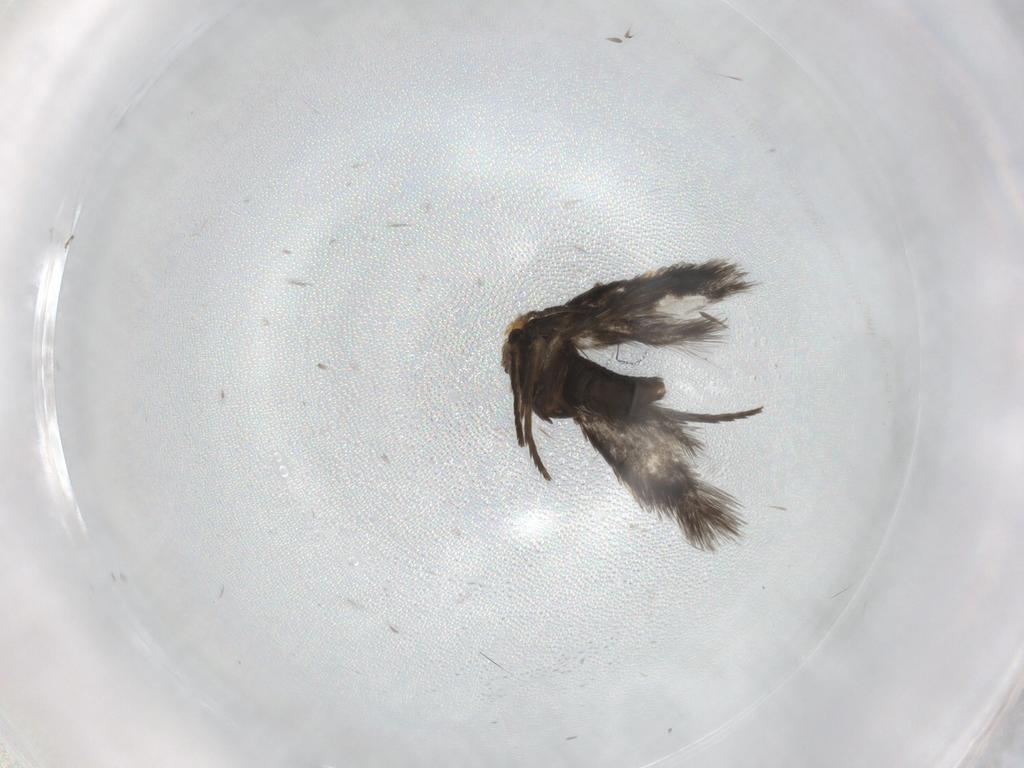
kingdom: Animalia
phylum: Arthropoda
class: Insecta
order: Lepidoptera
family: Nepticulidae
